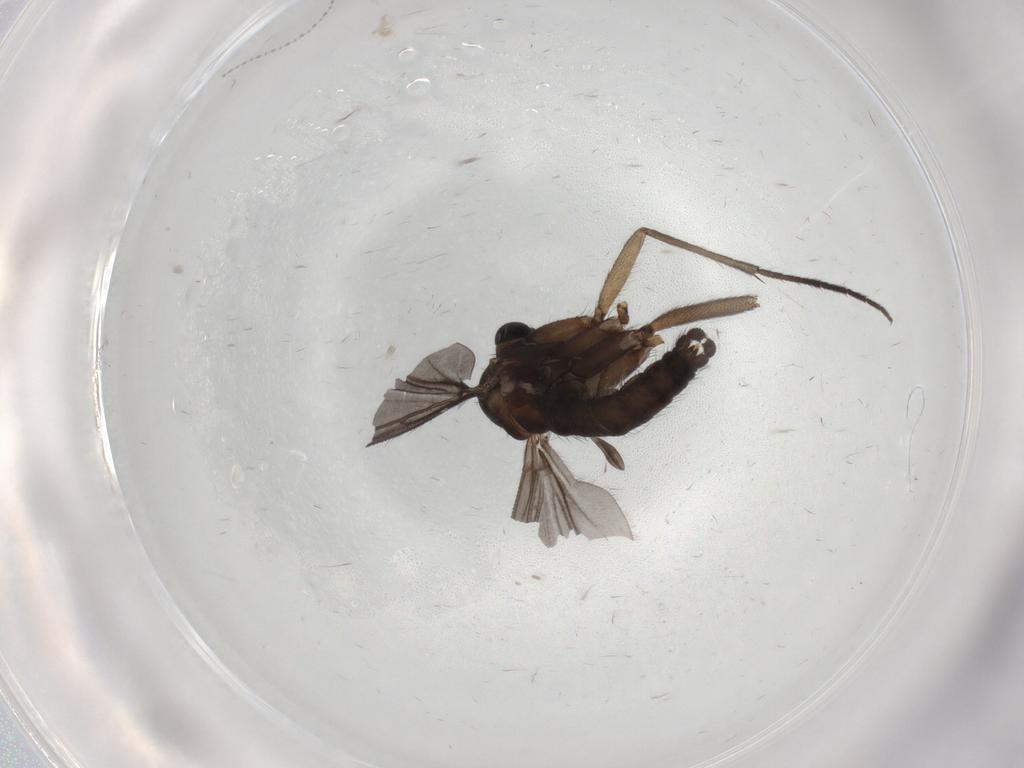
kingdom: Animalia
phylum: Arthropoda
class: Insecta
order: Diptera
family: Sciaridae
